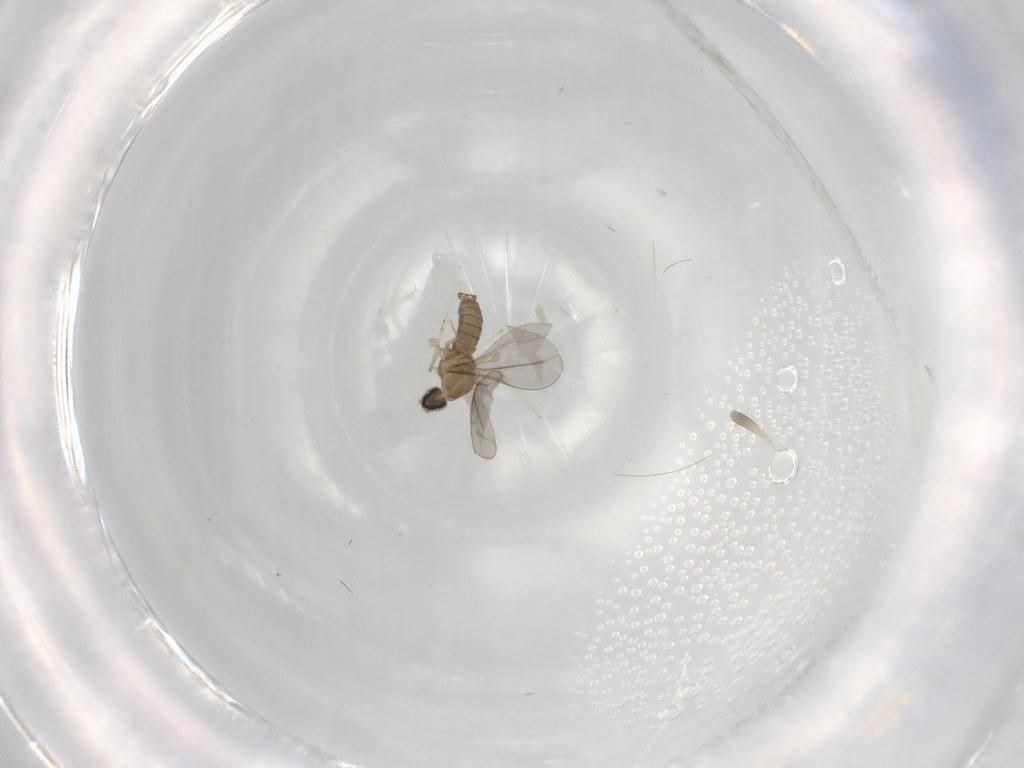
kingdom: Animalia
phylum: Arthropoda
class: Insecta
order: Diptera
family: Cecidomyiidae
